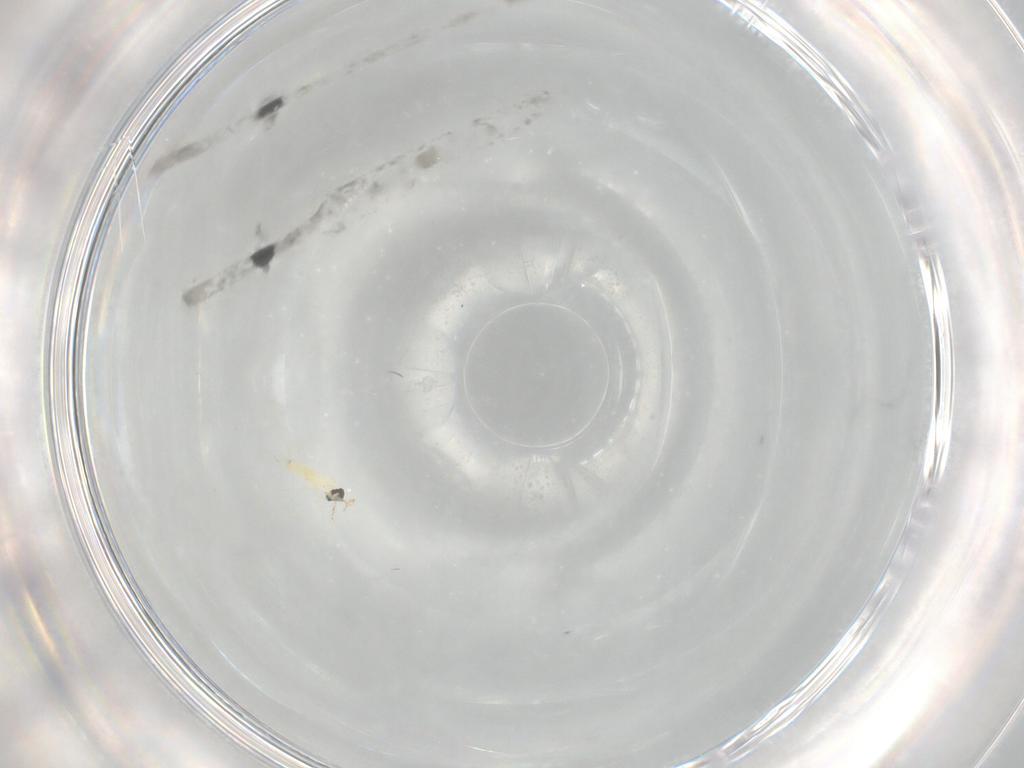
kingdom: Animalia
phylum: Arthropoda
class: Insecta
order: Diptera
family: Cecidomyiidae
